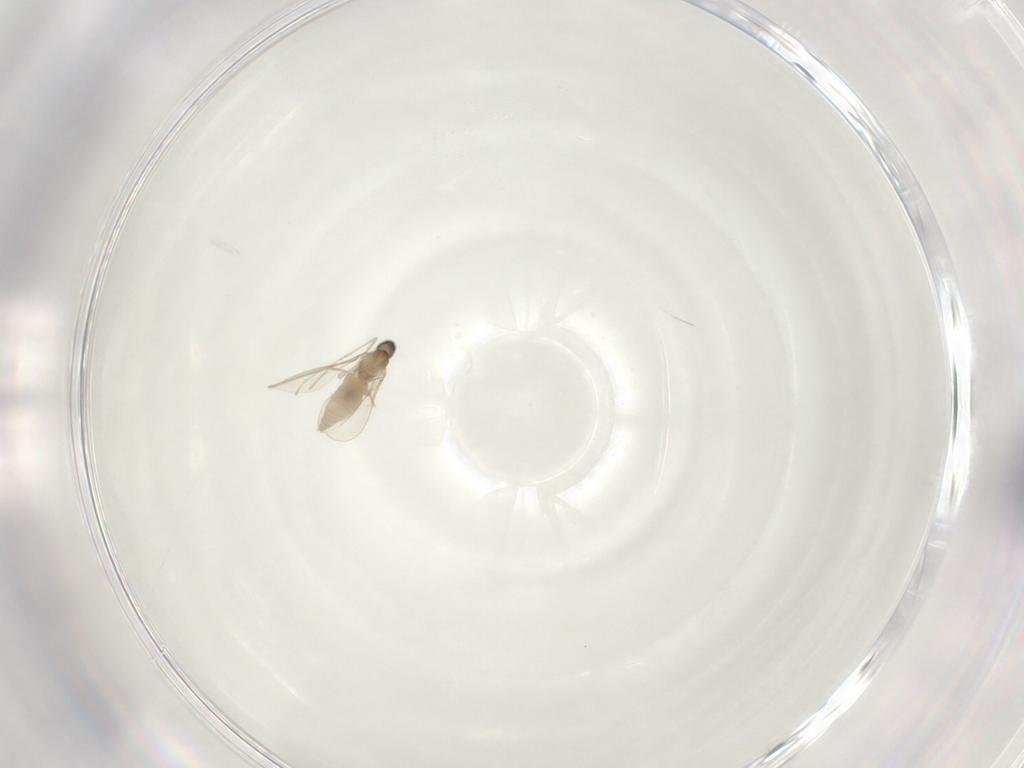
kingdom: Animalia
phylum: Arthropoda
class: Insecta
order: Diptera
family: Cecidomyiidae
